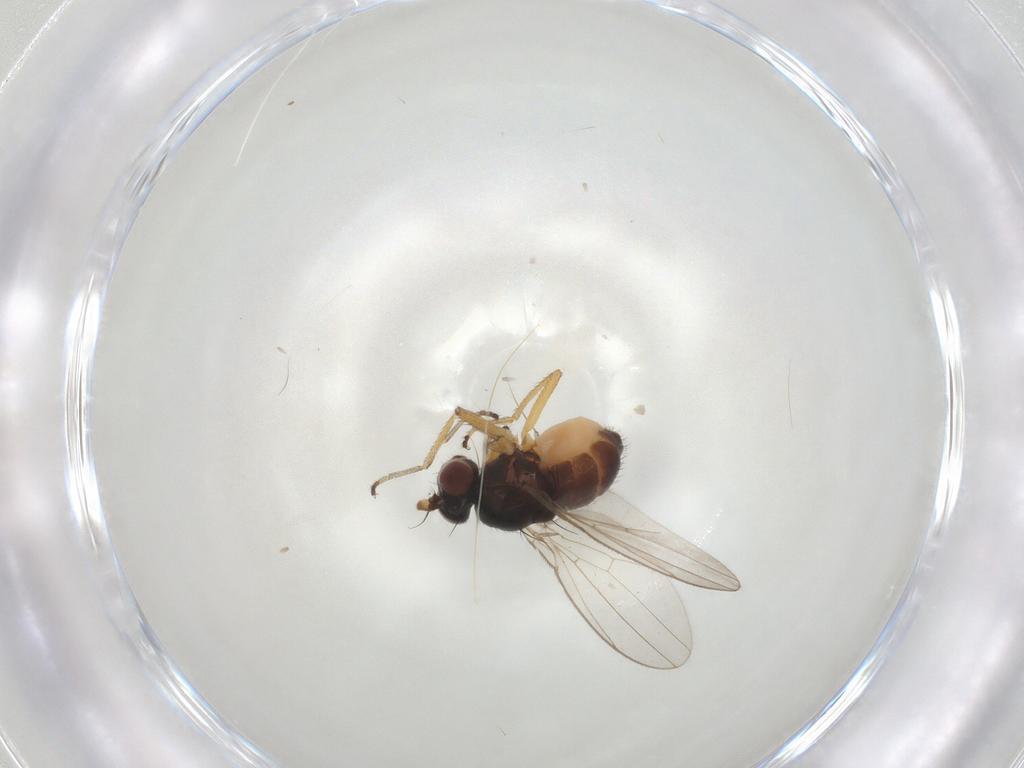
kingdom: Animalia
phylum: Arthropoda
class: Insecta
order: Diptera
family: Ephydridae
